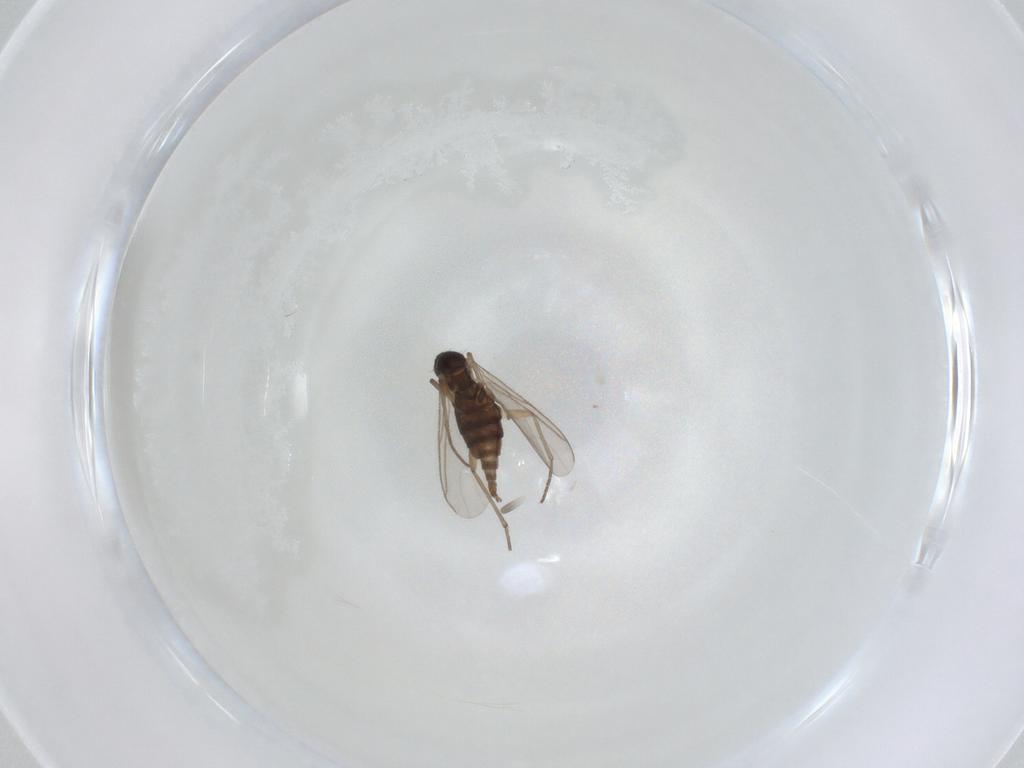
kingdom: Animalia
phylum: Arthropoda
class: Insecta
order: Diptera
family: Sciaridae
